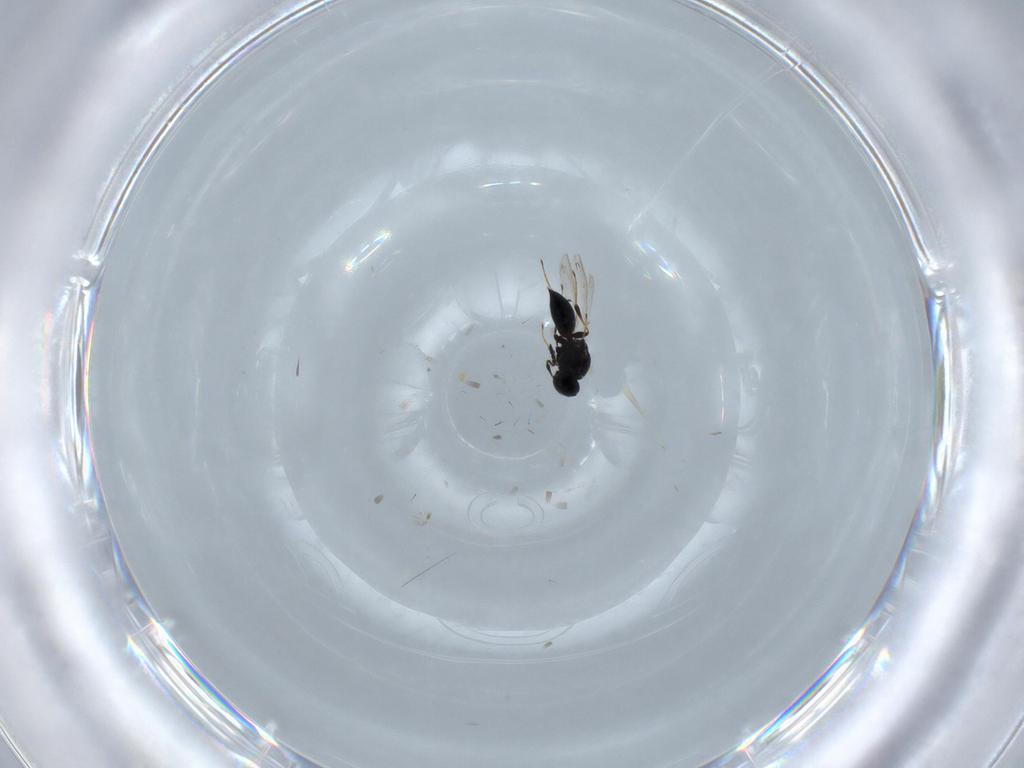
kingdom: Animalia
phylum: Arthropoda
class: Insecta
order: Hymenoptera
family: Platygastridae
